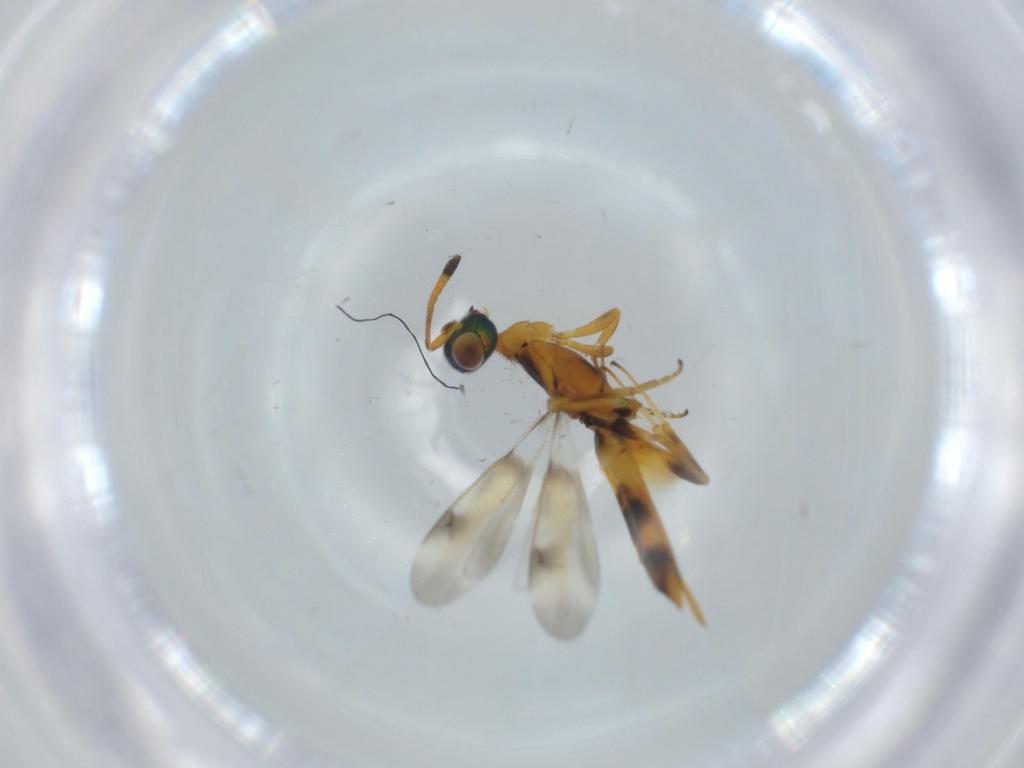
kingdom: Animalia
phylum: Arthropoda
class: Insecta
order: Hymenoptera
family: Eupelmidae
